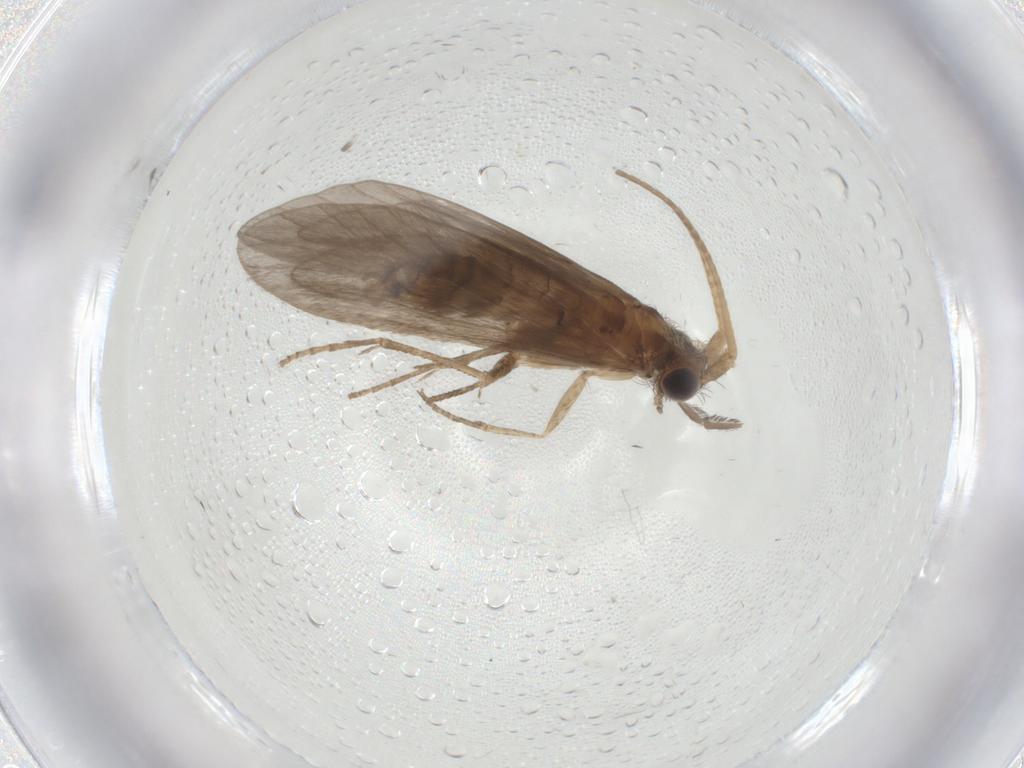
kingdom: Animalia
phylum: Arthropoda
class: Insecta
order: Trichoptera
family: Helicopsychidae
